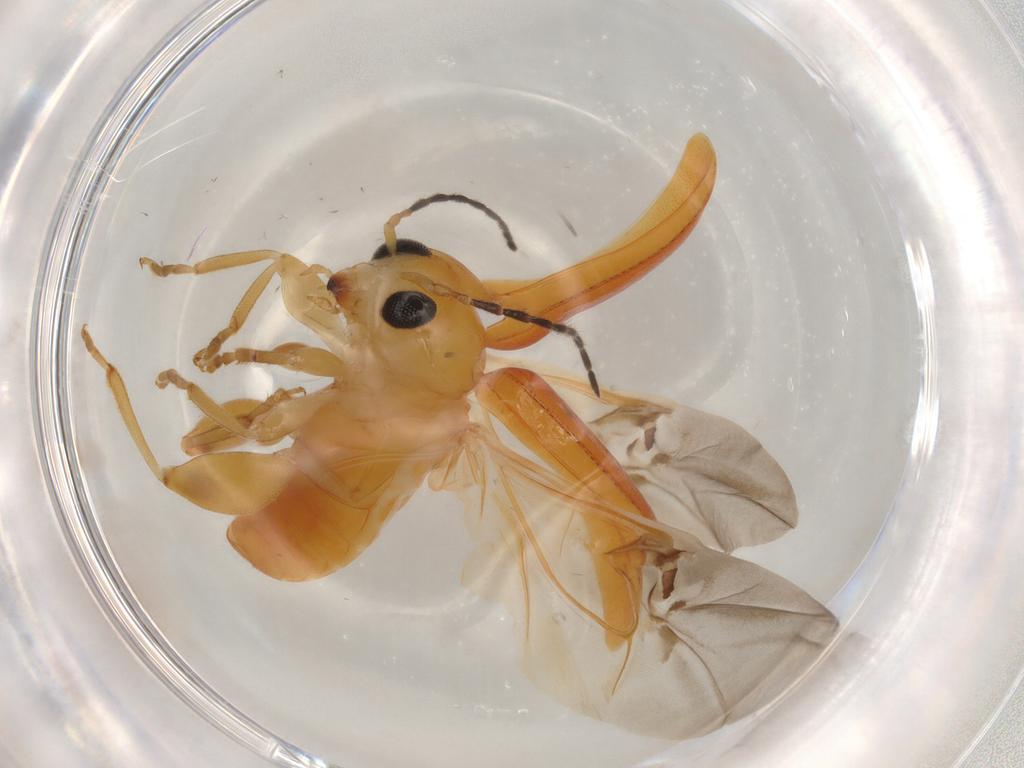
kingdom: Animalia
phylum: Arthropoda
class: Insecta
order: Coleoptera
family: Chrysomelidae
